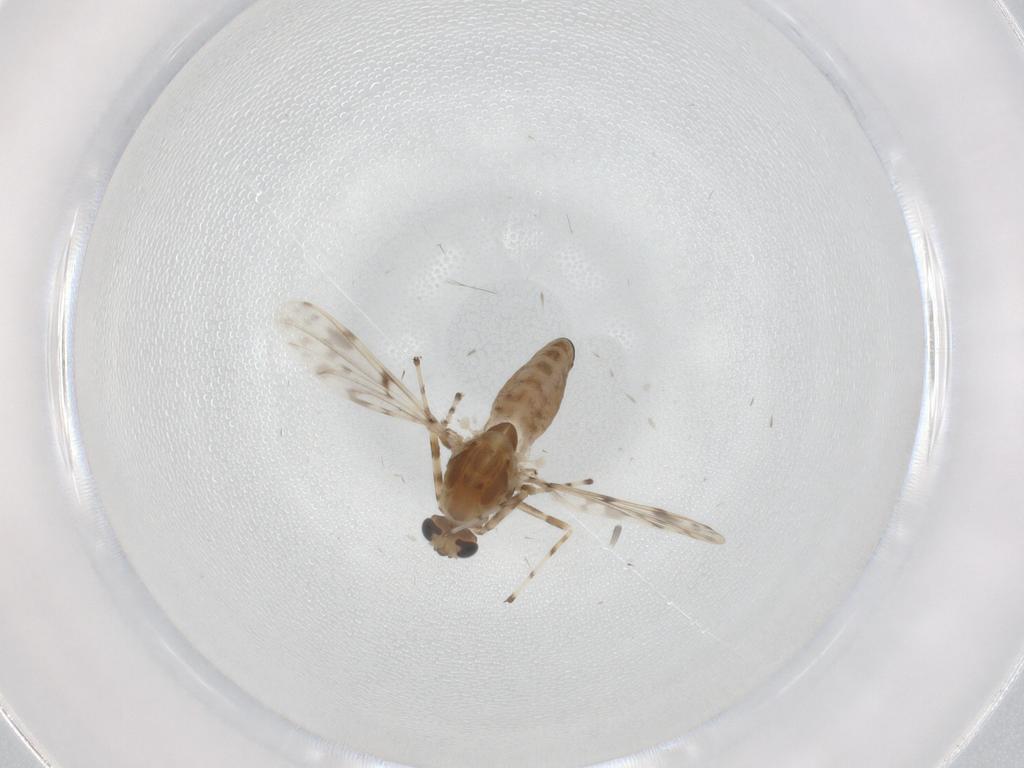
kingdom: Animalia
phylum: Arthropoda
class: Insecta
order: Diptera
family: Chironomidae
